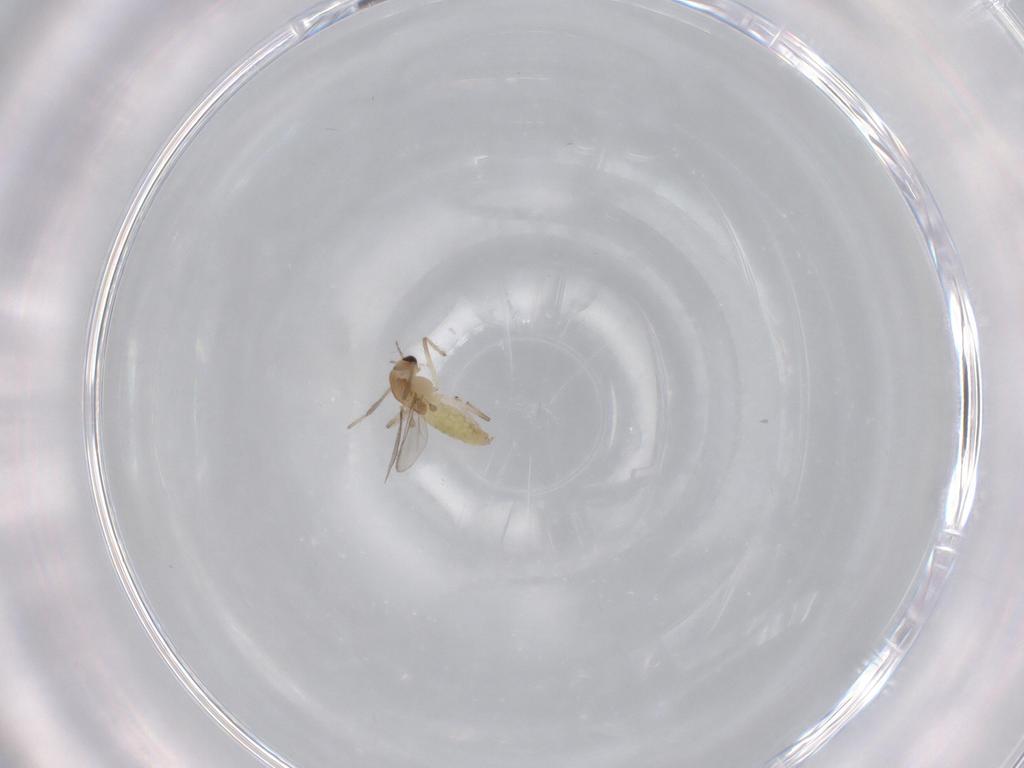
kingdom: Animalia
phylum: Arthropoda
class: Insecta
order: Diptera
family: Chironomidae
